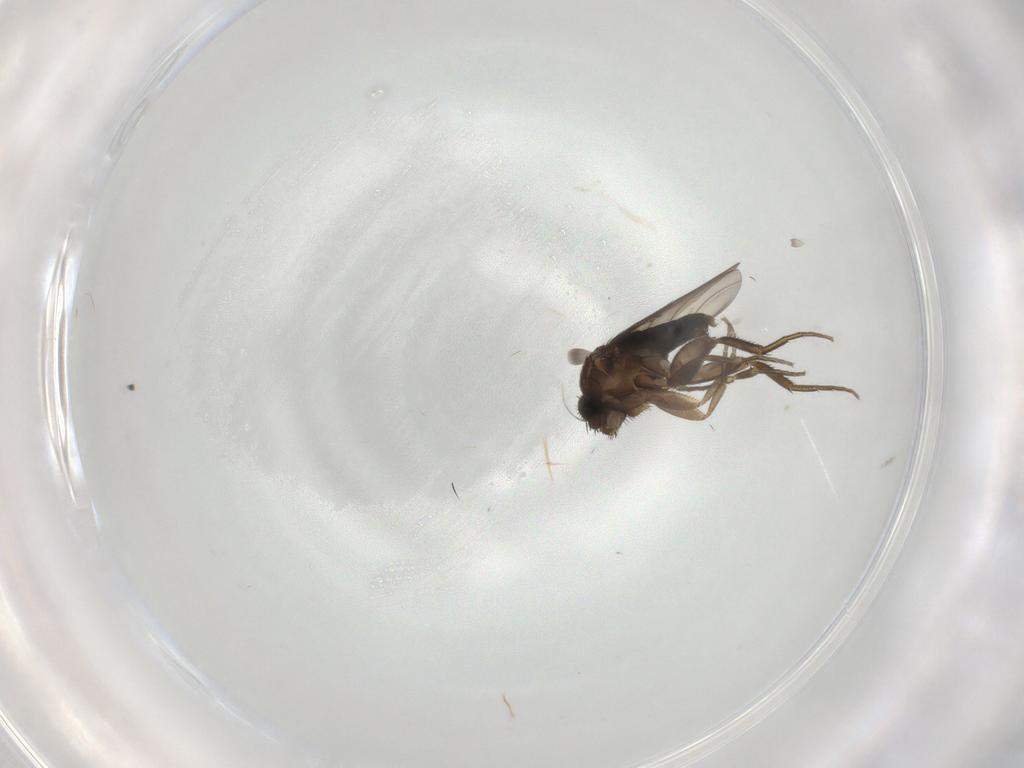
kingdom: Animalia
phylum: Arthropoda
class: Insecta
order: Diptera
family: Phoridae
